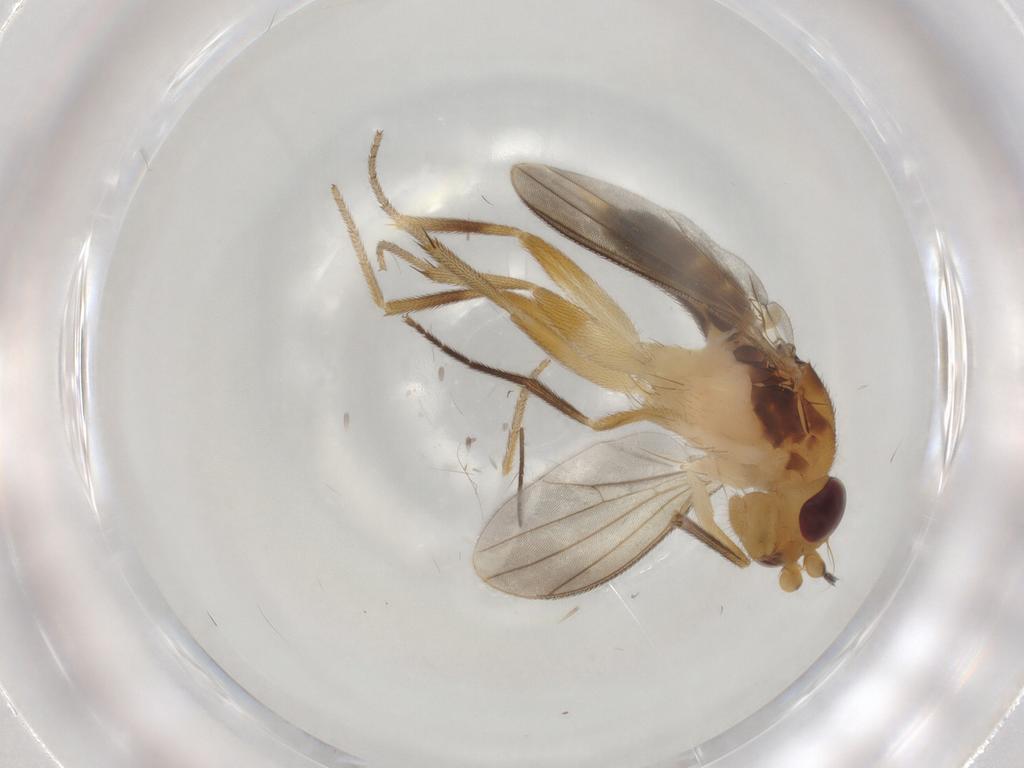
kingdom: Animalia
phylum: Arthropoda
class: Insecta
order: Diptera
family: Clusiidae
